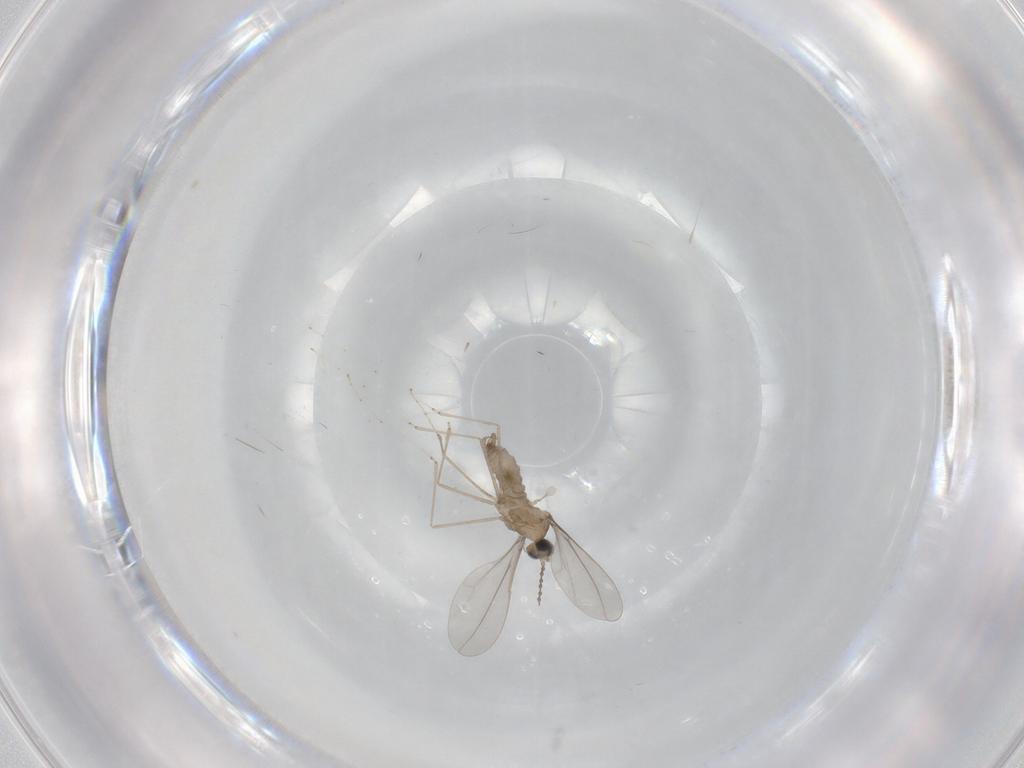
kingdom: Animalia
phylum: Arthropoda
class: Insecta
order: Diptera
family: Cecidomyiidae
